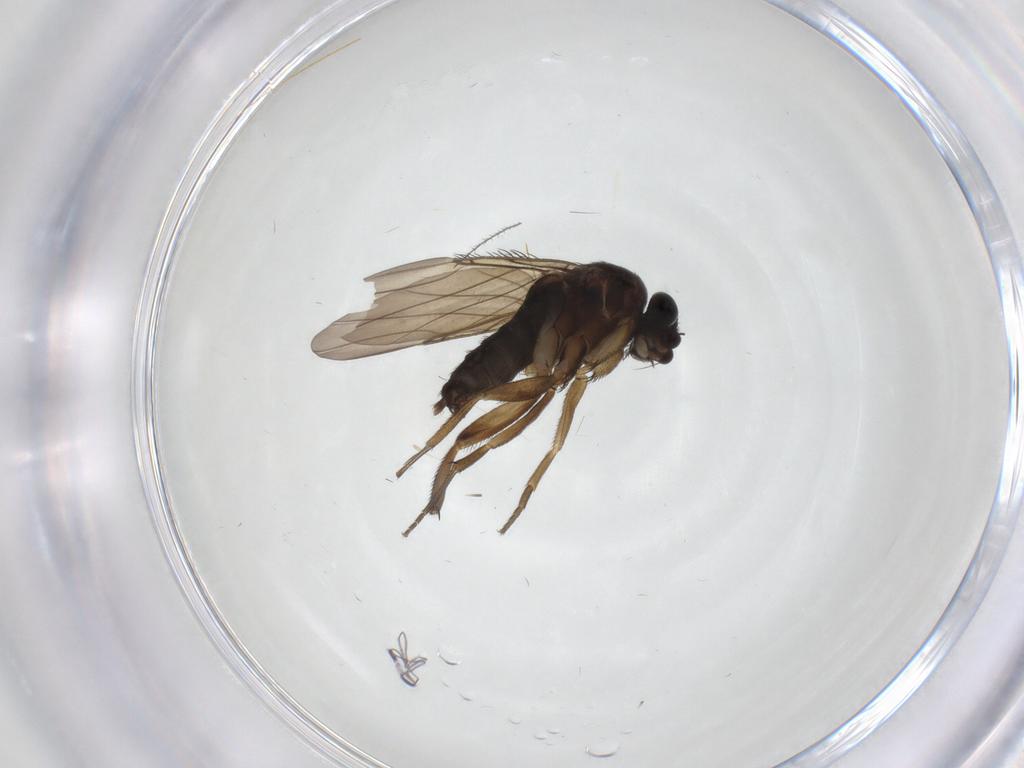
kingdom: Animalia
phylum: Arthropoda
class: Insecta
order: Diptera
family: Phoridae
